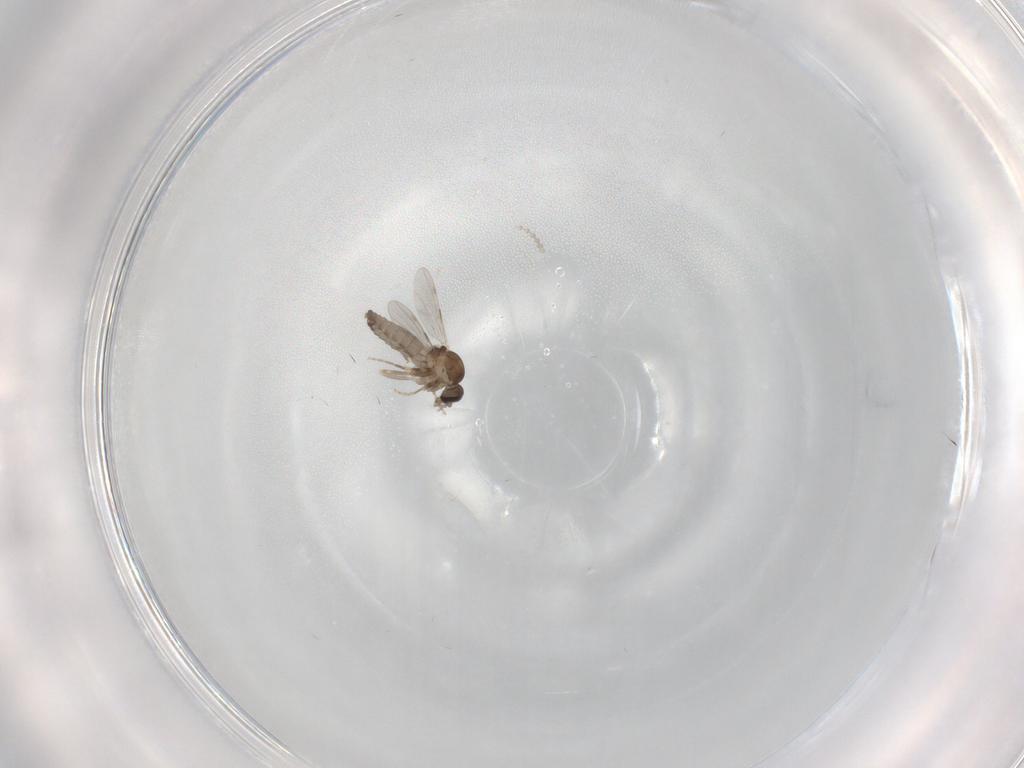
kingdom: Animalia
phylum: Arthropoda
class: Insecta
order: Diptera
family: Ceratopogonidae
